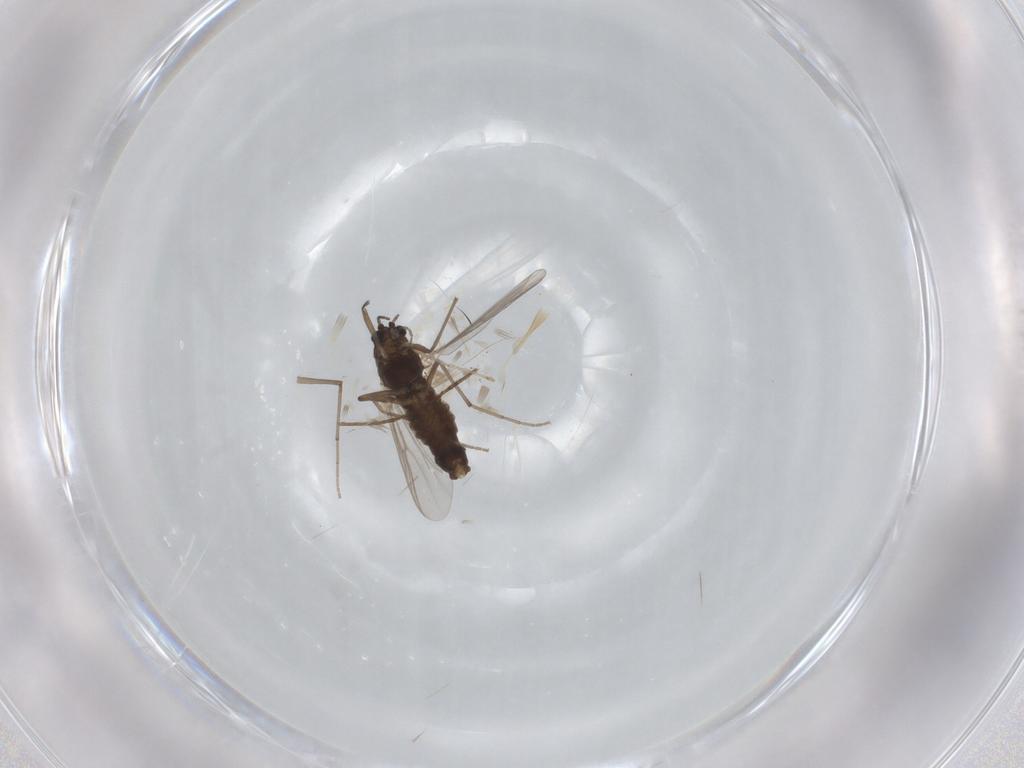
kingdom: Animalia
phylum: Arthropoda
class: Insecta
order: Diptera
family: Chironomidae
